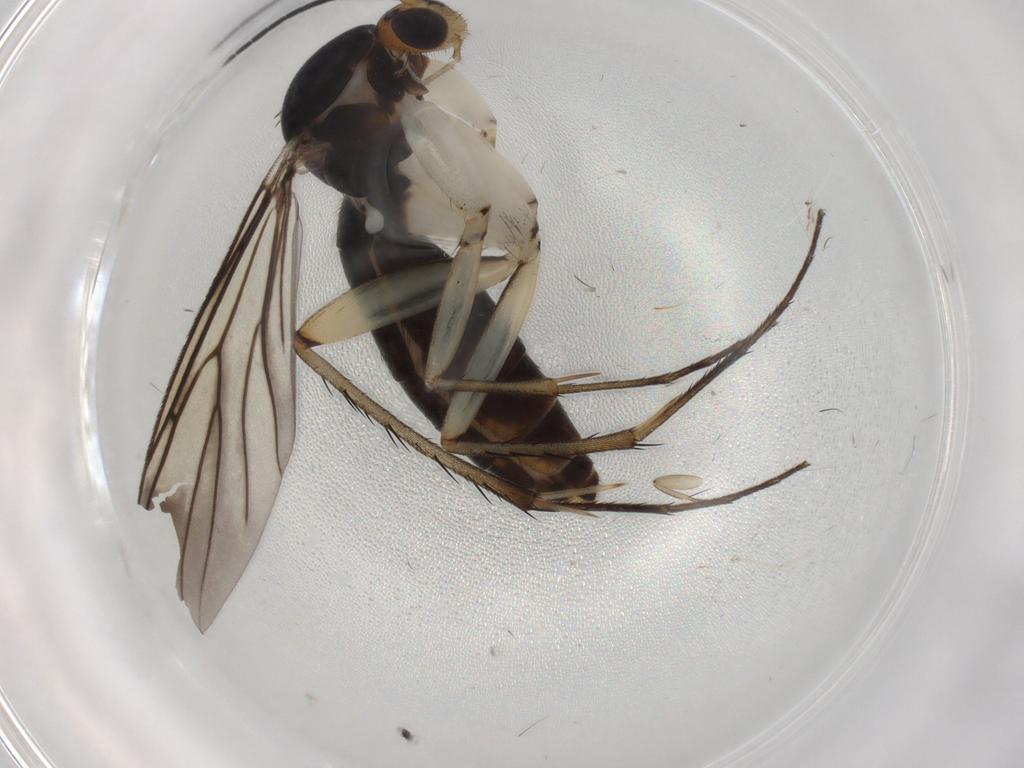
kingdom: Animalia
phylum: Arthropoda
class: Insecta
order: Diptera
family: Mycetophilidae
